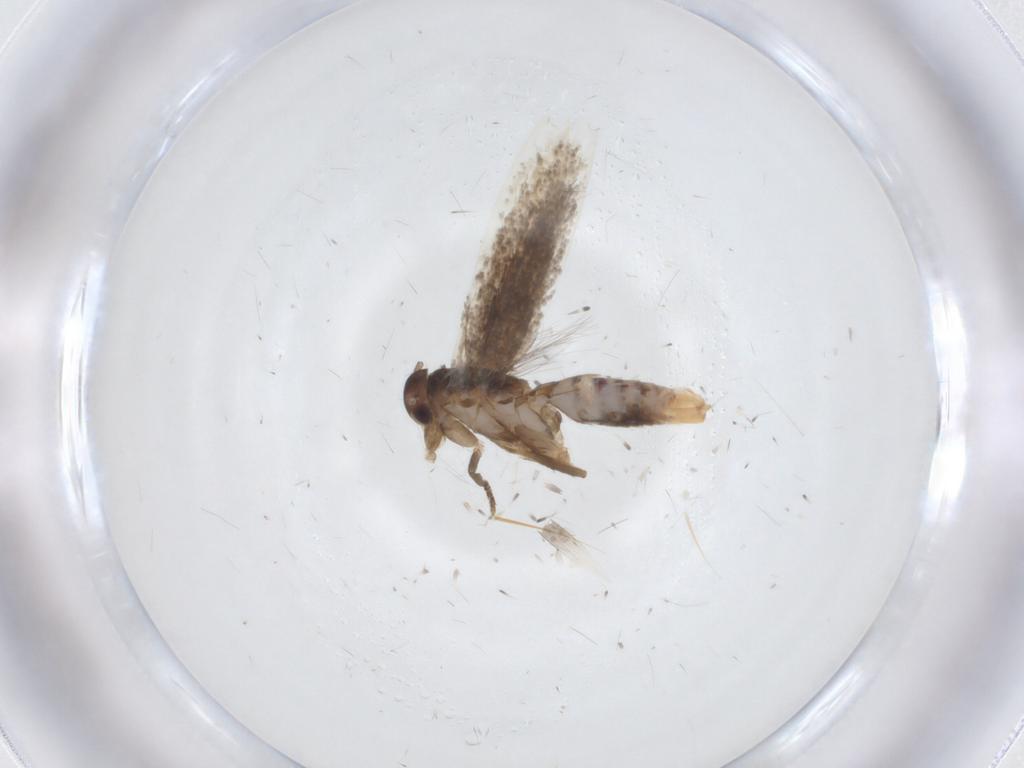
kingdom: Animalia
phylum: Arthropoda
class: Insecta
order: Lepidoptera
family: Elachistidae
